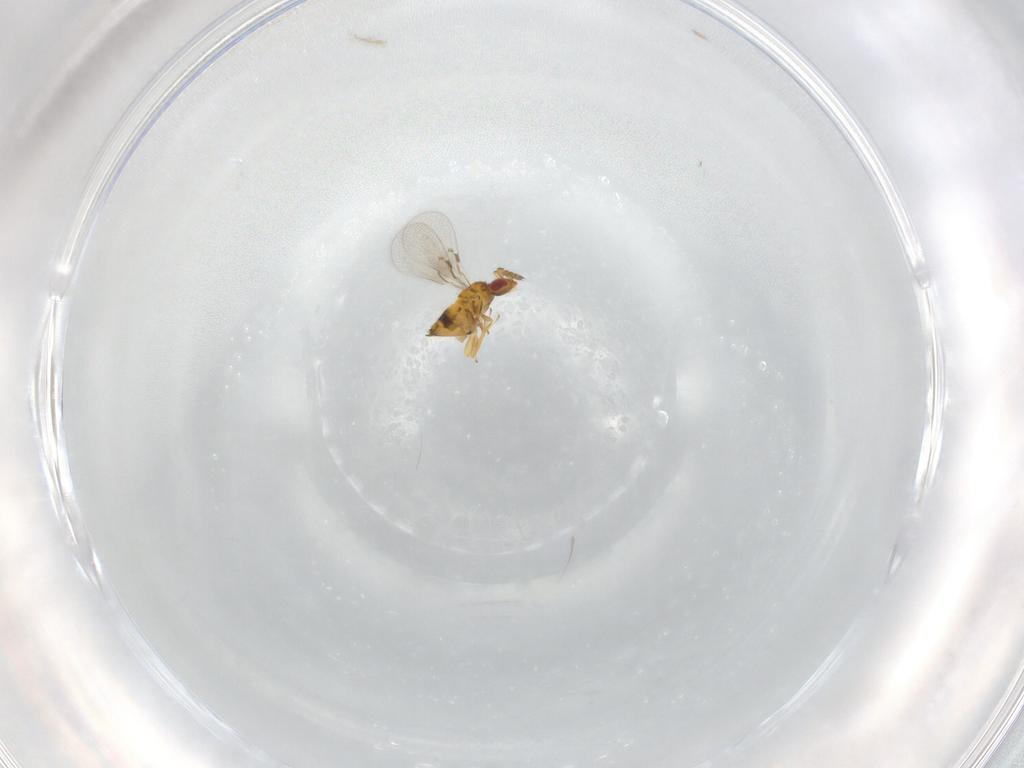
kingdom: Animalia
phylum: Arthropoda
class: Insecta
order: Hymenoptera
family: Trichogrammatidae
